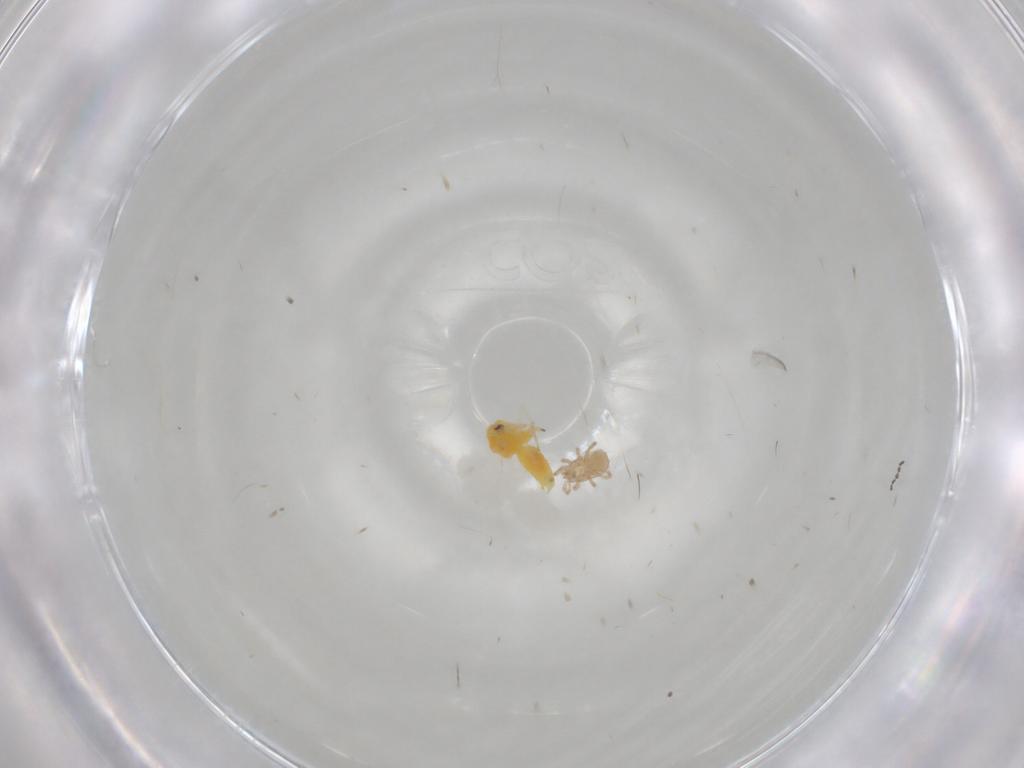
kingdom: Animalia
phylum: Arthropoda
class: Arachnida
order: Mesostigmata
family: Blattisociidae
